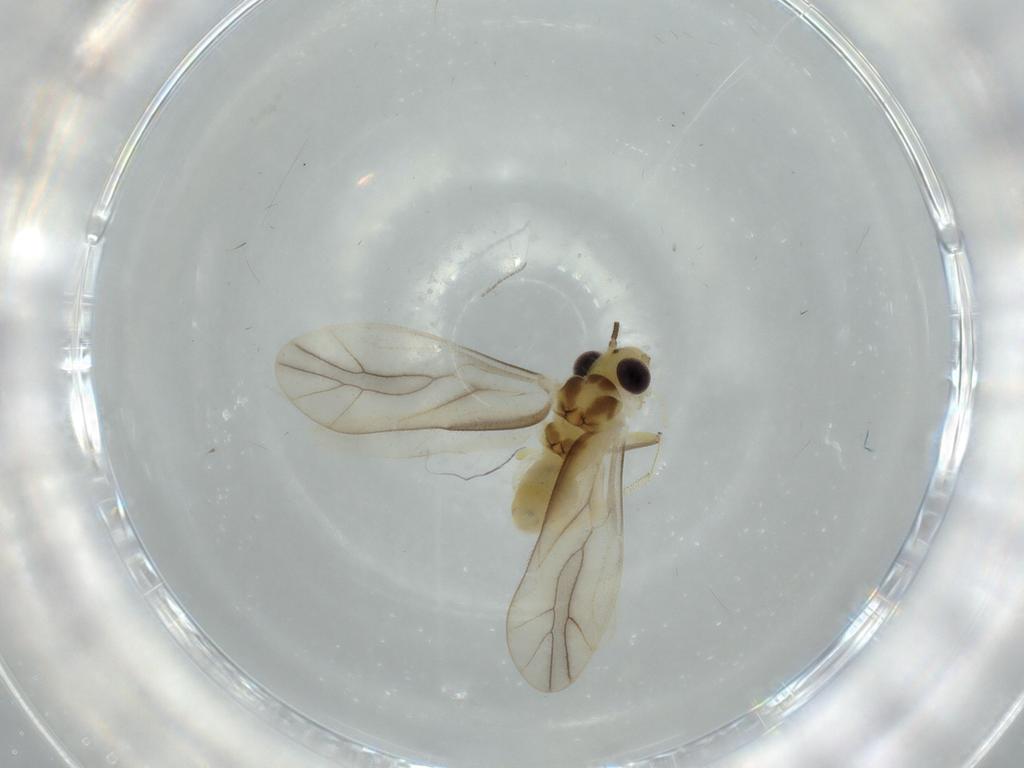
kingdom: Animalia
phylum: Arthropoda
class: Insecta
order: Psocodea
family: Caeciliusidae
